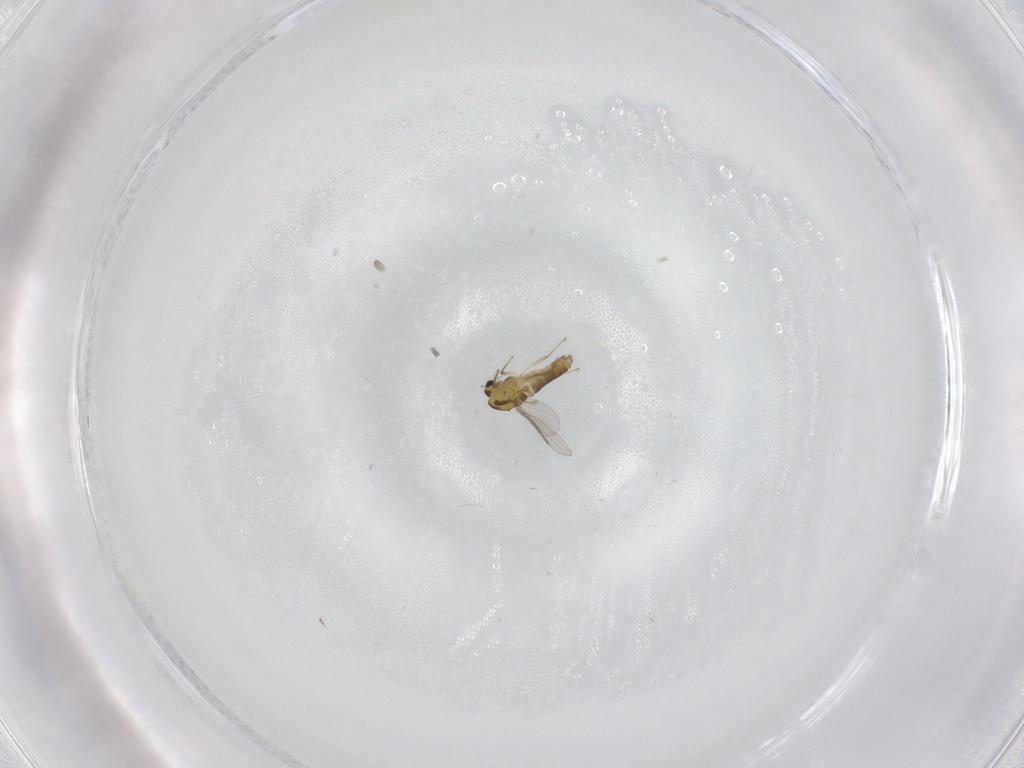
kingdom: Animalia
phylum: Arthropoda
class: Insecta
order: Diptera
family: Chironomidae
